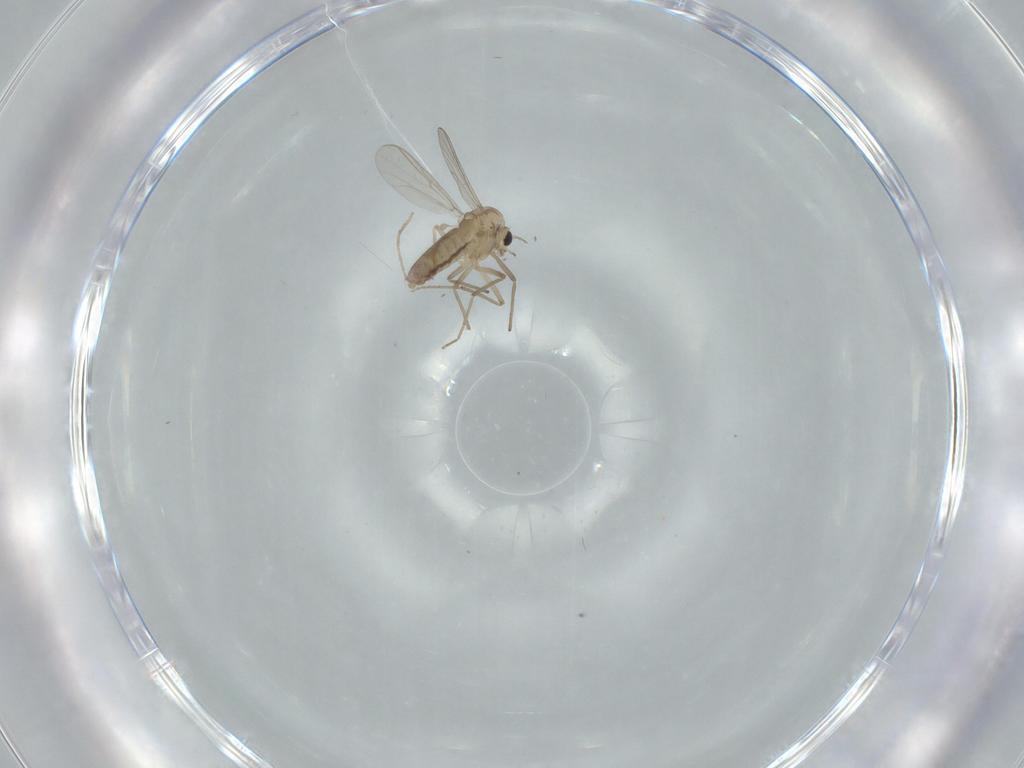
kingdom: Animalia
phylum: Arthropoda
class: Insecta
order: Diptera
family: Chironomidae
